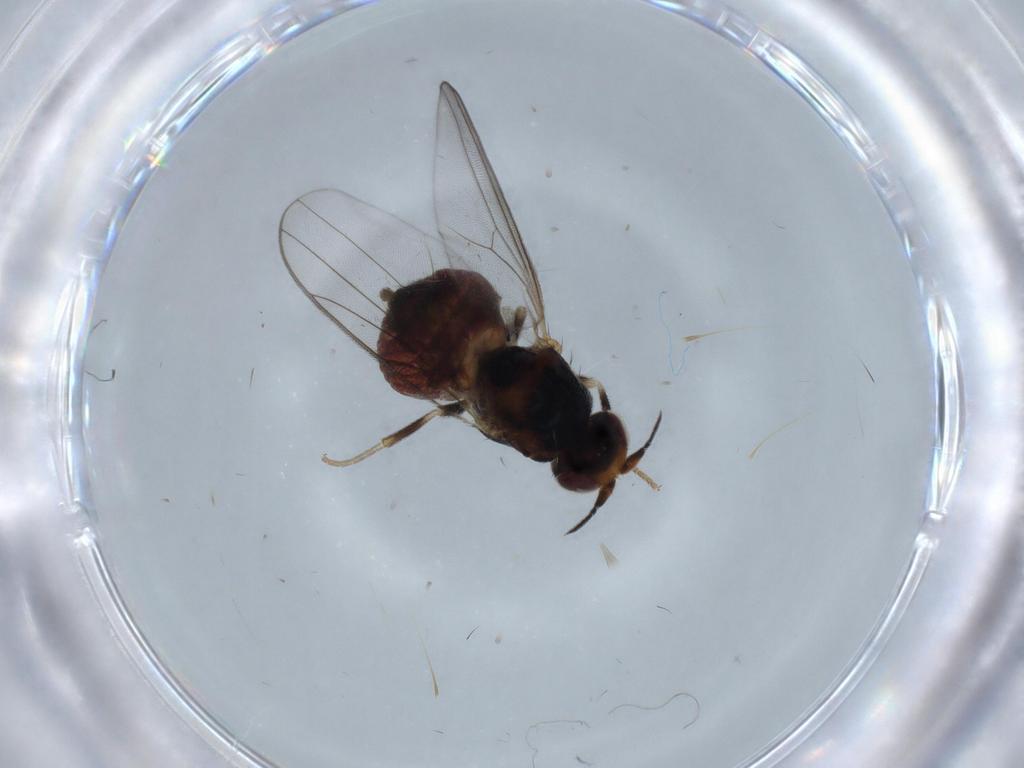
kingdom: Animalia
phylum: Arthropoda
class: Insecta
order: Diptera
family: Chloropidae
